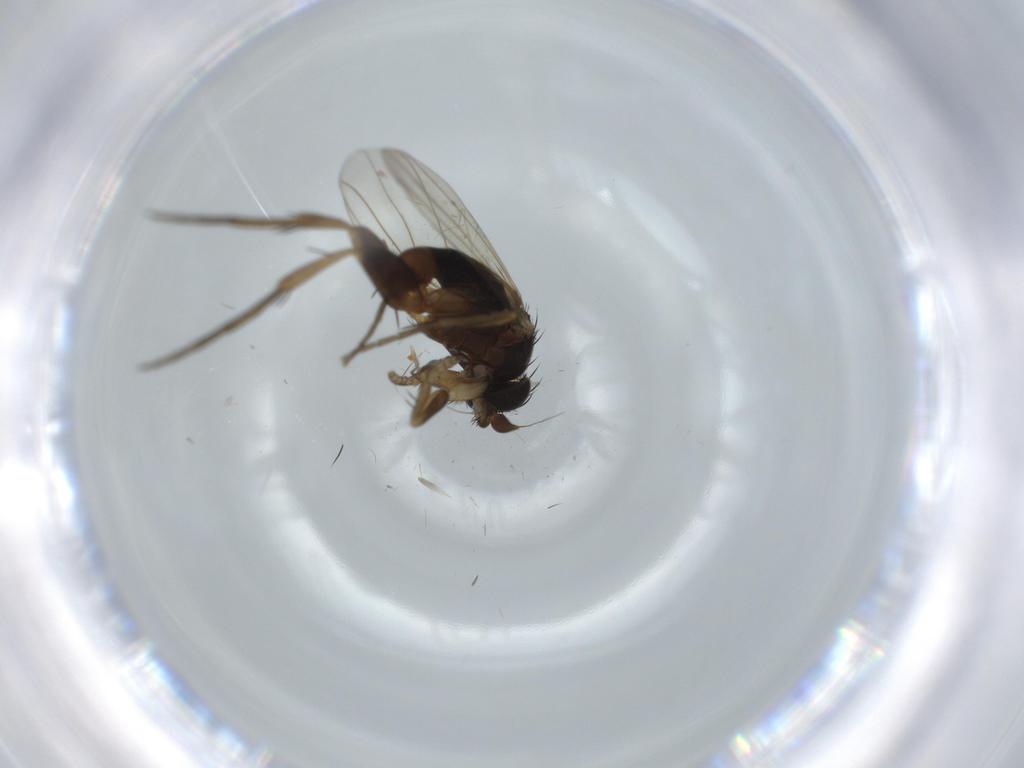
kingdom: Animalia
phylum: Arthropoda
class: Insecta
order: Diptera
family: Chironomidae
